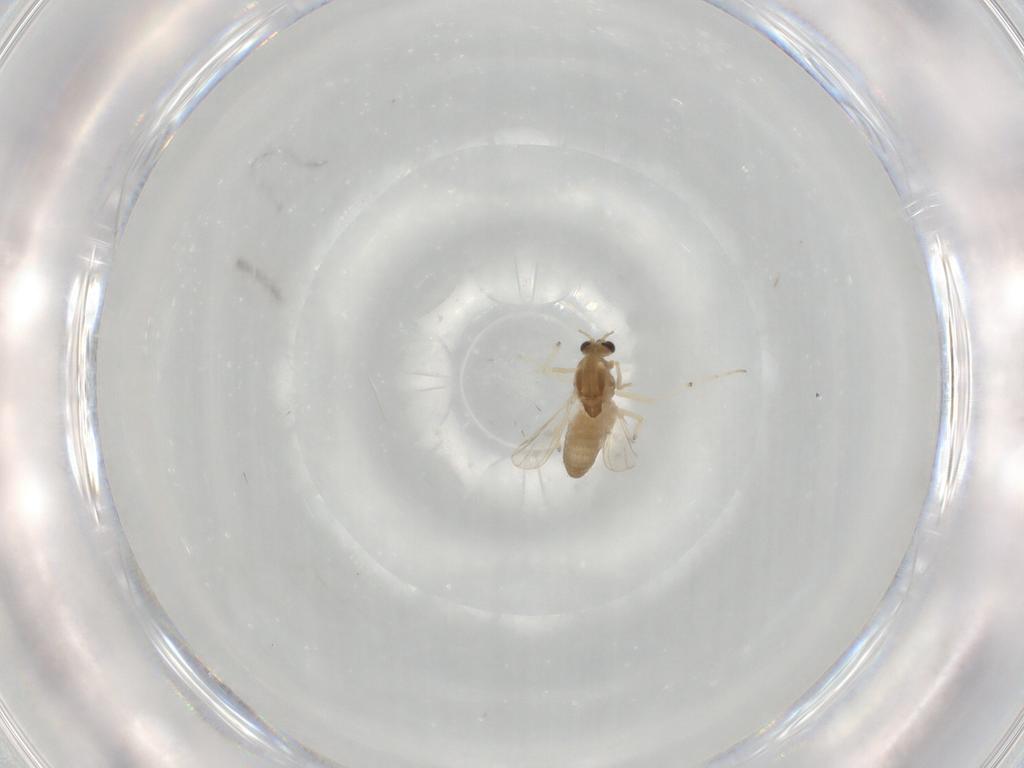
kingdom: Animalia
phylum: Arthropoda
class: Insecta
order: Diptera
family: Chironomidae
